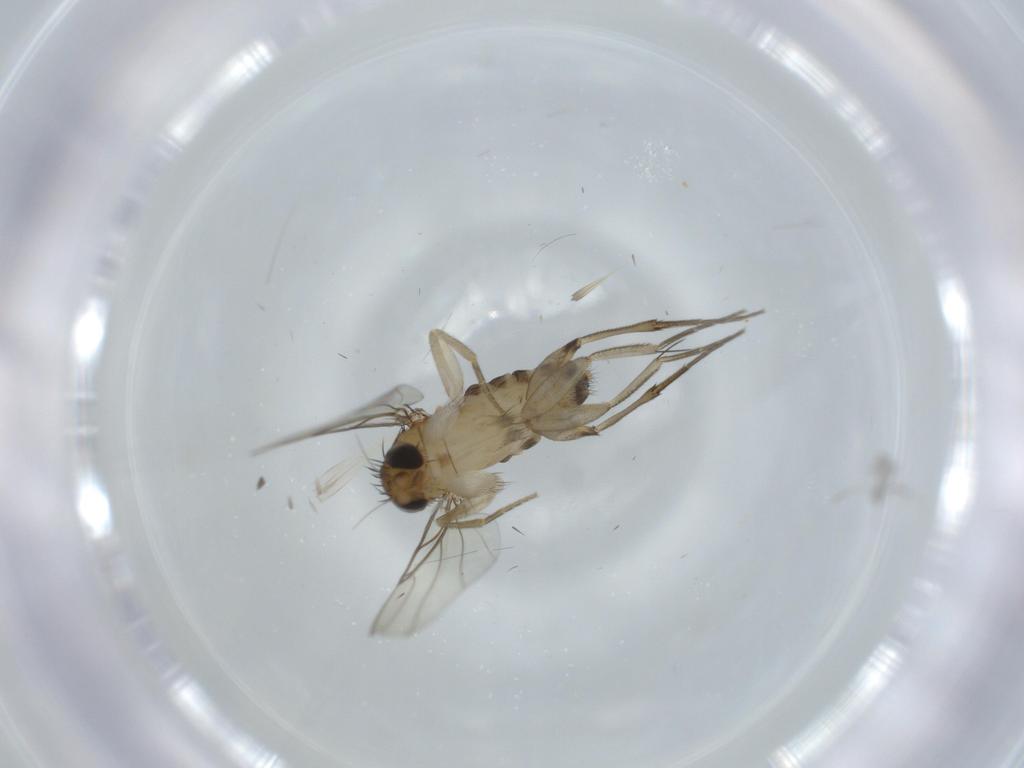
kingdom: Animalia
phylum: Arthropoda
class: Insecta
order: Diptera
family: Phoridae
